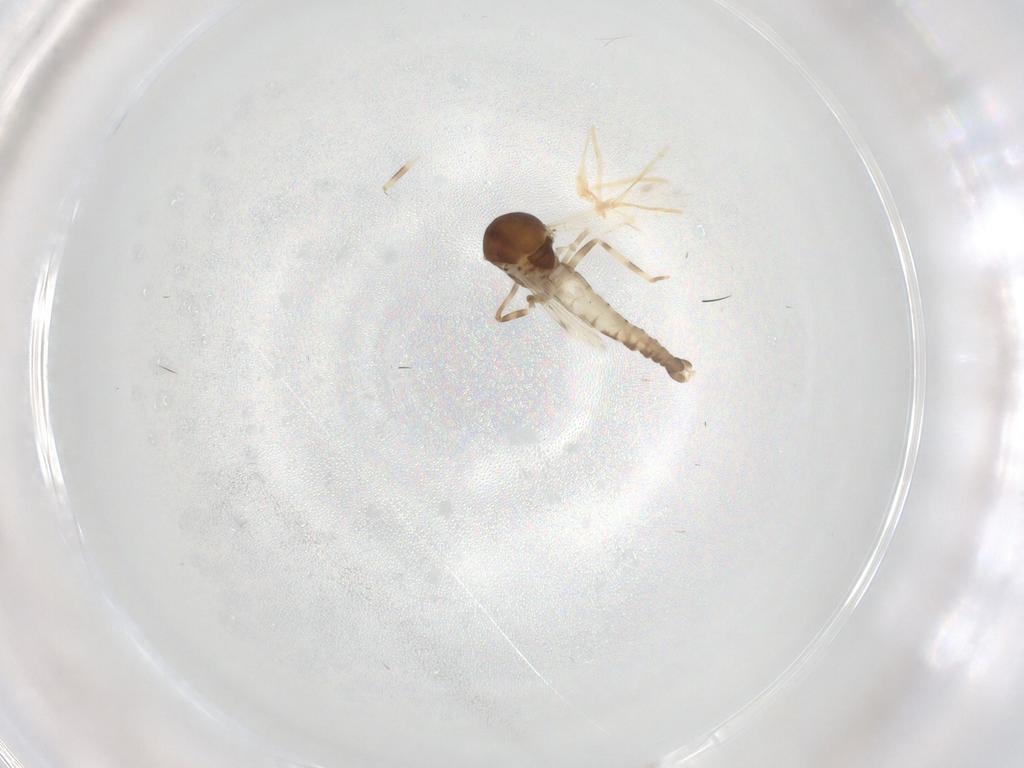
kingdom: Animalia
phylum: Arthropoda
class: Insecta
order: Diptera
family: Ceratopogonidae
